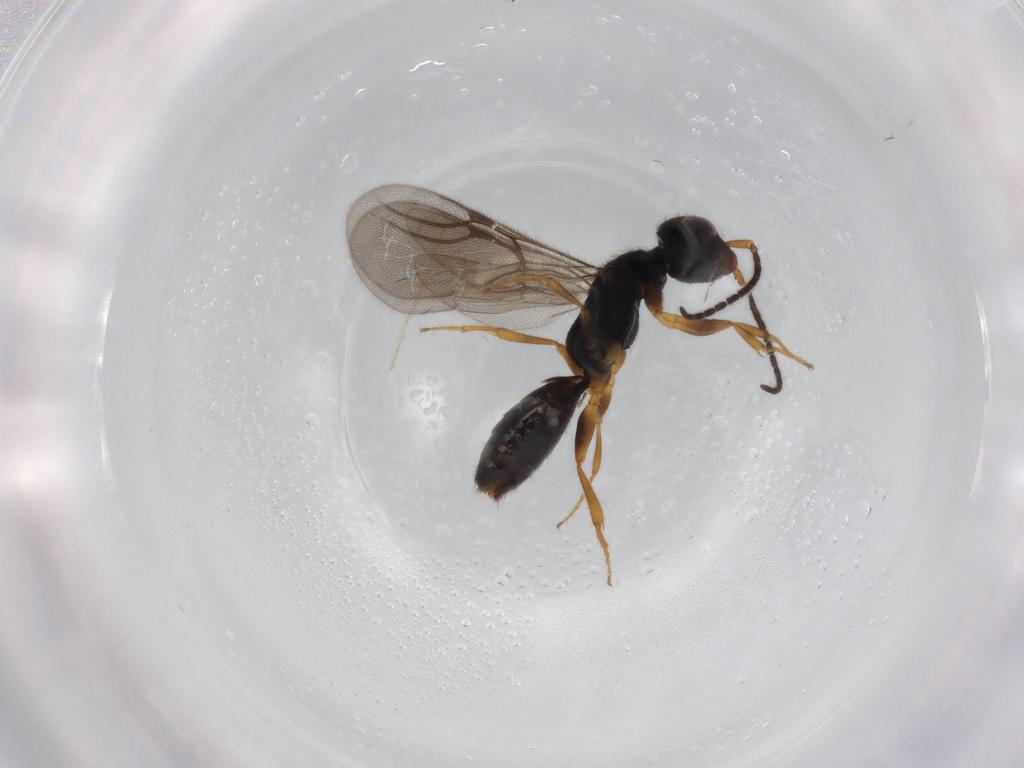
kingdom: Animalia
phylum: Arthropoda
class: Insecta
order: Hymenoptera
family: Bethylidae
